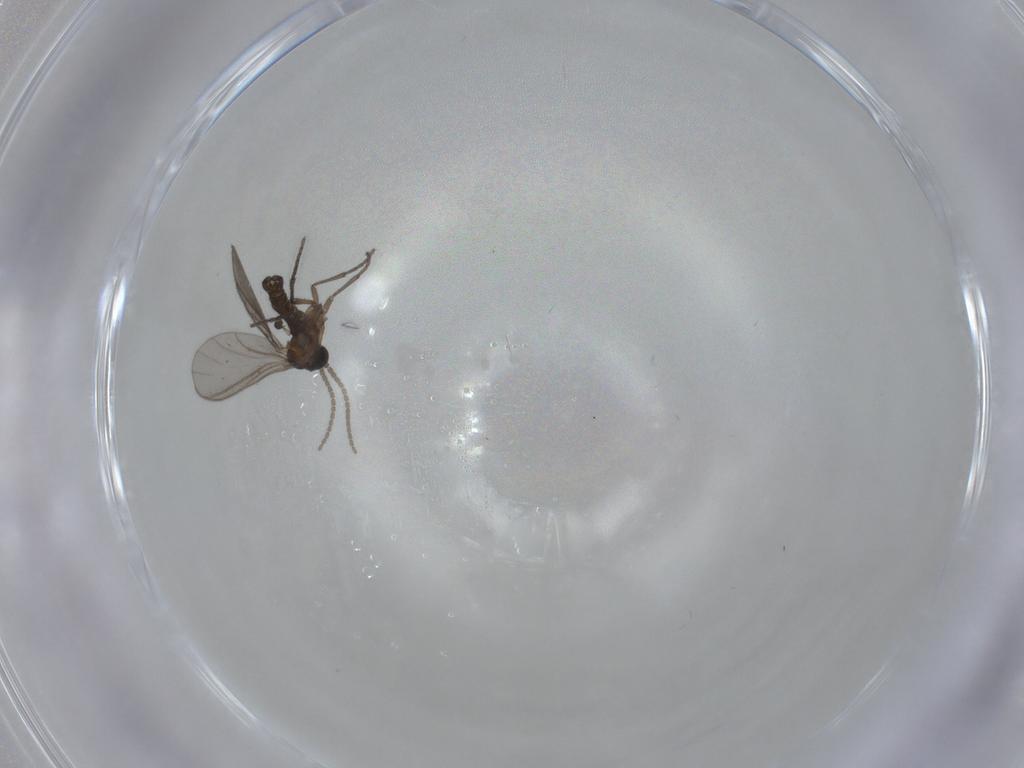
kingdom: Animalia
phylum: Arthropoda
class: Insecta
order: Diptera
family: Sciaridae
